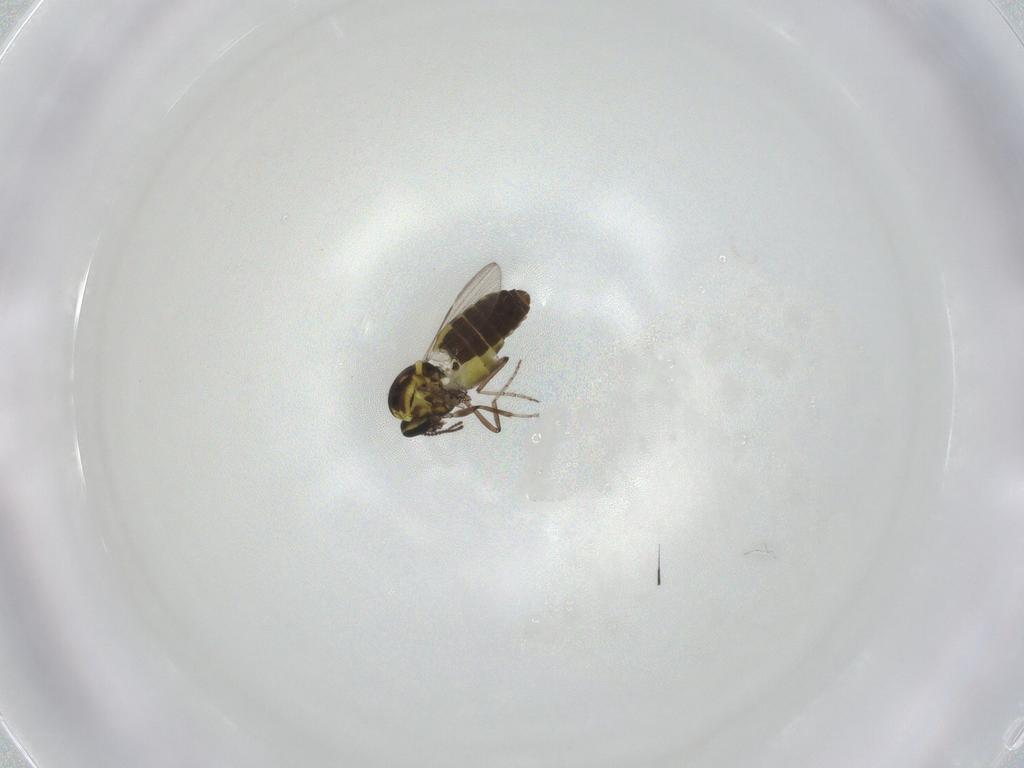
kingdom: Animalia
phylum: Arthropoda
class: Insecta
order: Diptera
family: Ceratopogonidae
